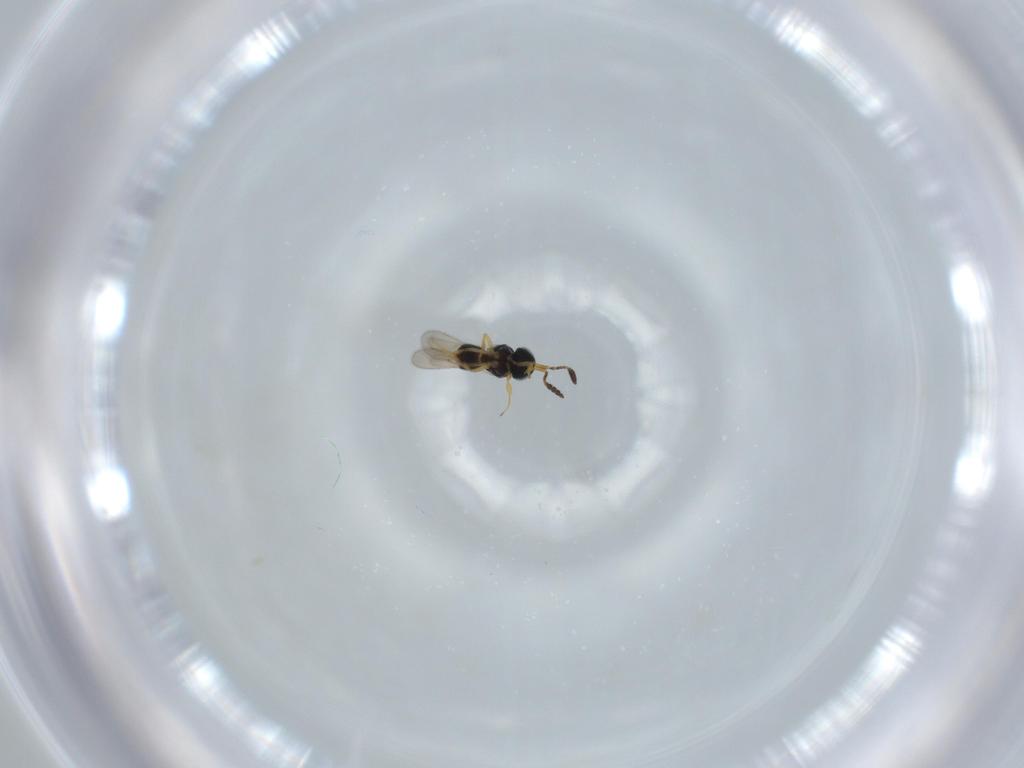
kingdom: Animalia
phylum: Arthropoda
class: Insecta
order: Hymenoptera
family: Scelionidae
